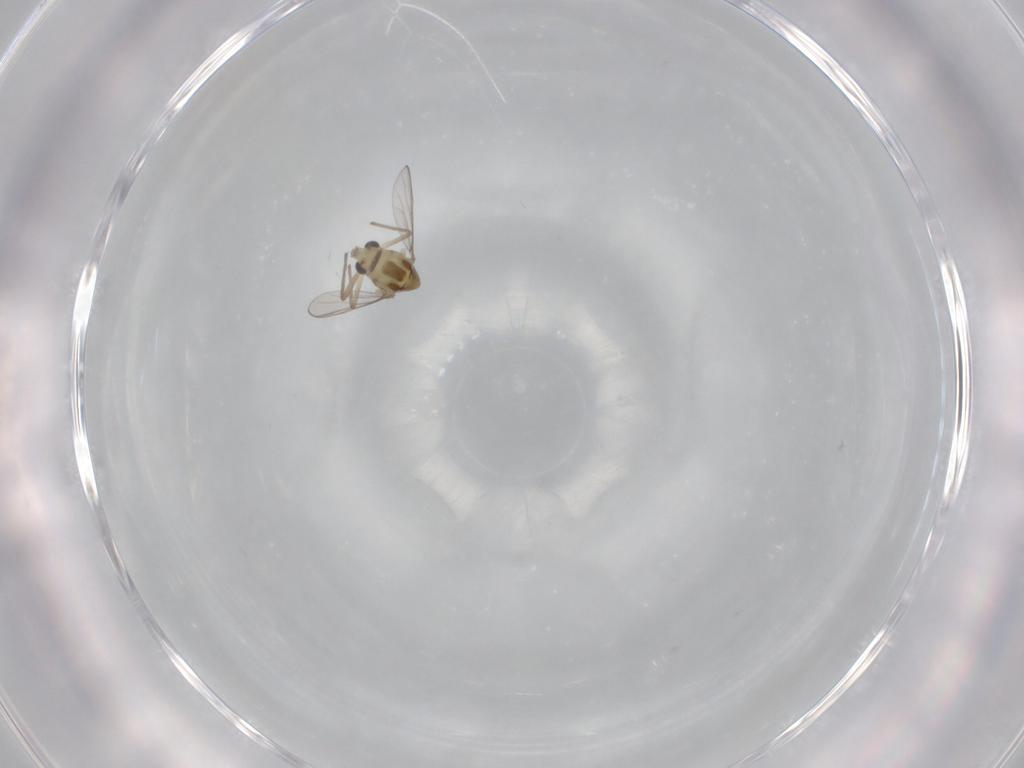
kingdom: Animalia
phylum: Arthropoda
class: Insecta
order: Diptera
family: Chironomidae
